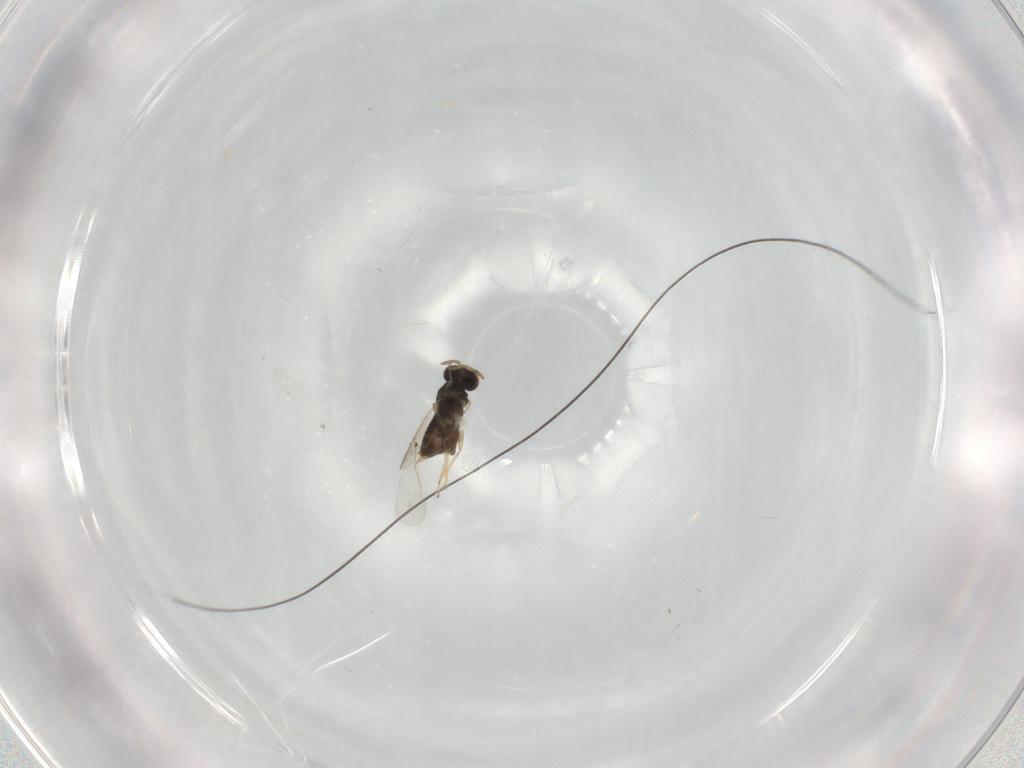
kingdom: Animalia
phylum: Arthropoda
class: Insecta
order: Hymenoptera
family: Aphelinidae
